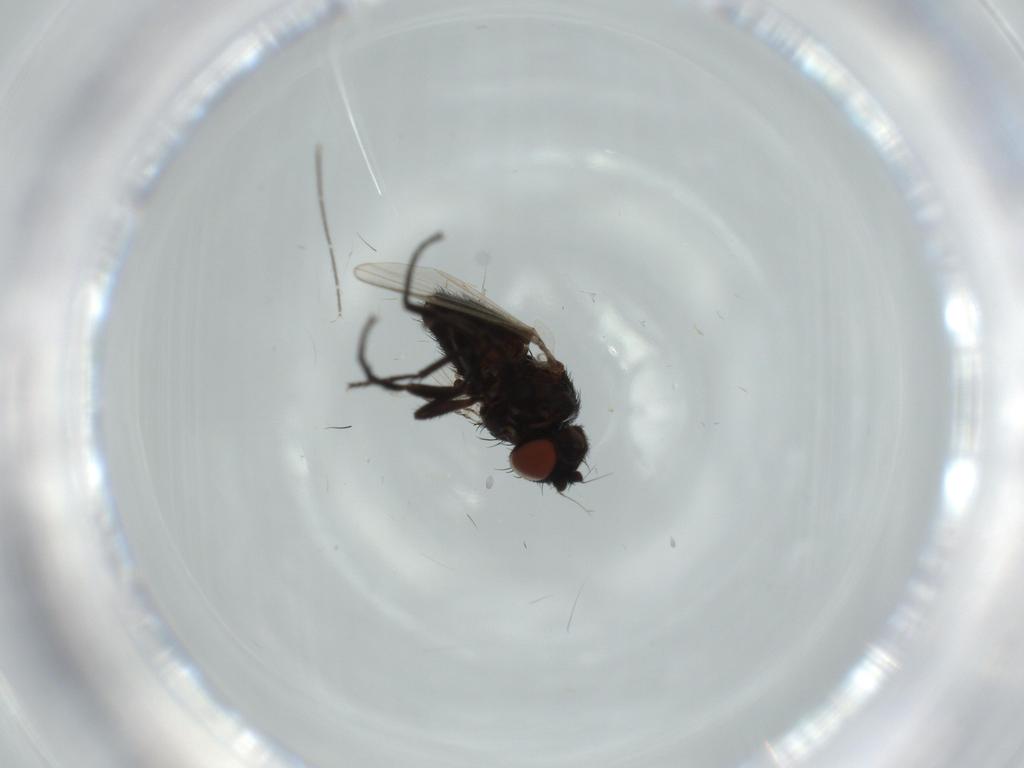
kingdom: Animalia
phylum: Arthropoda
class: Insecta
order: Diptera
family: Milichiidae
